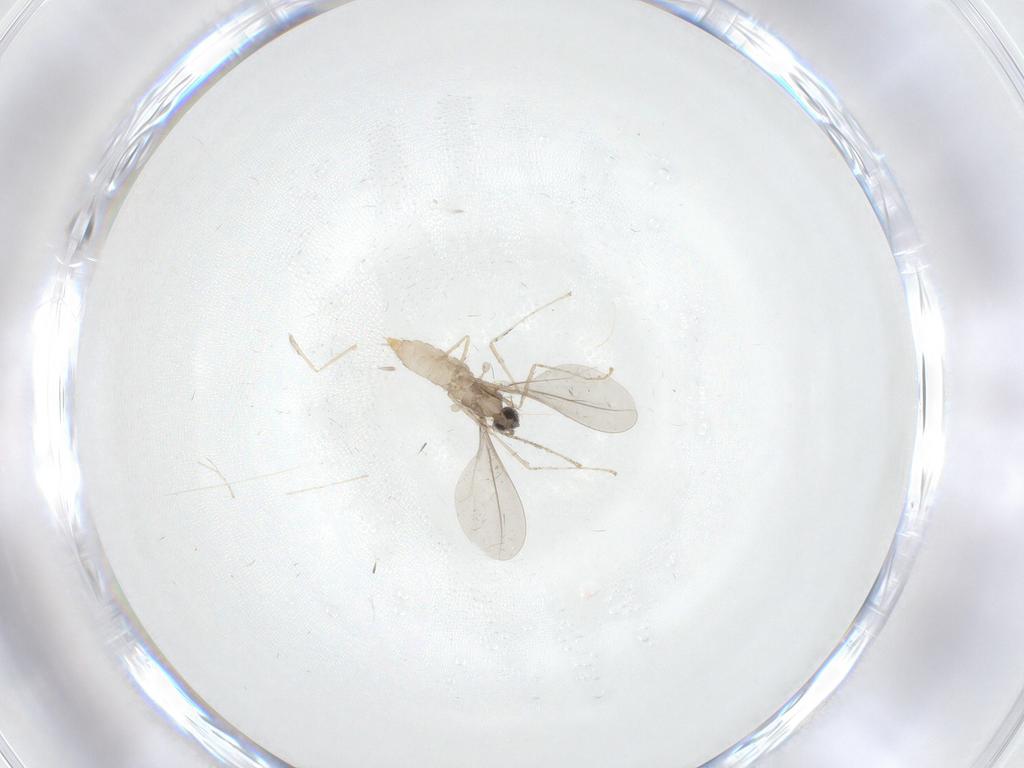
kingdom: Animalia
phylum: Arthropoda
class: Insecta
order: Diptera
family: Cecidomyiidae
